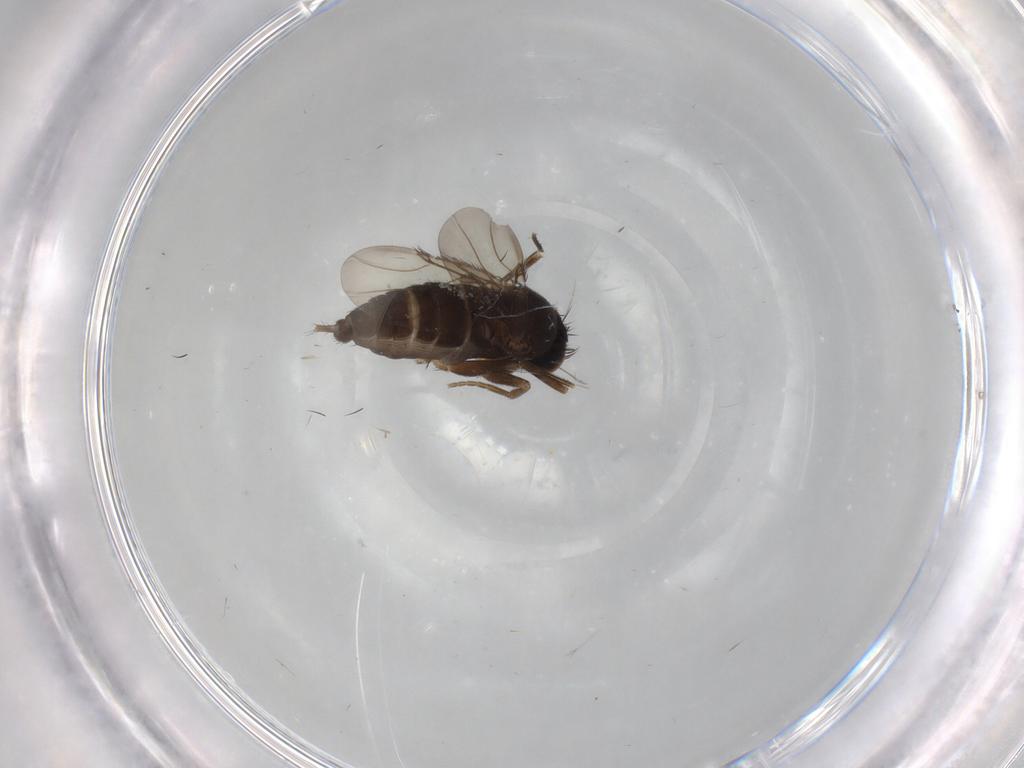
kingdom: Animalia
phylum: Arthropoda
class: Insecta
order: Diptera
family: Phoridae
